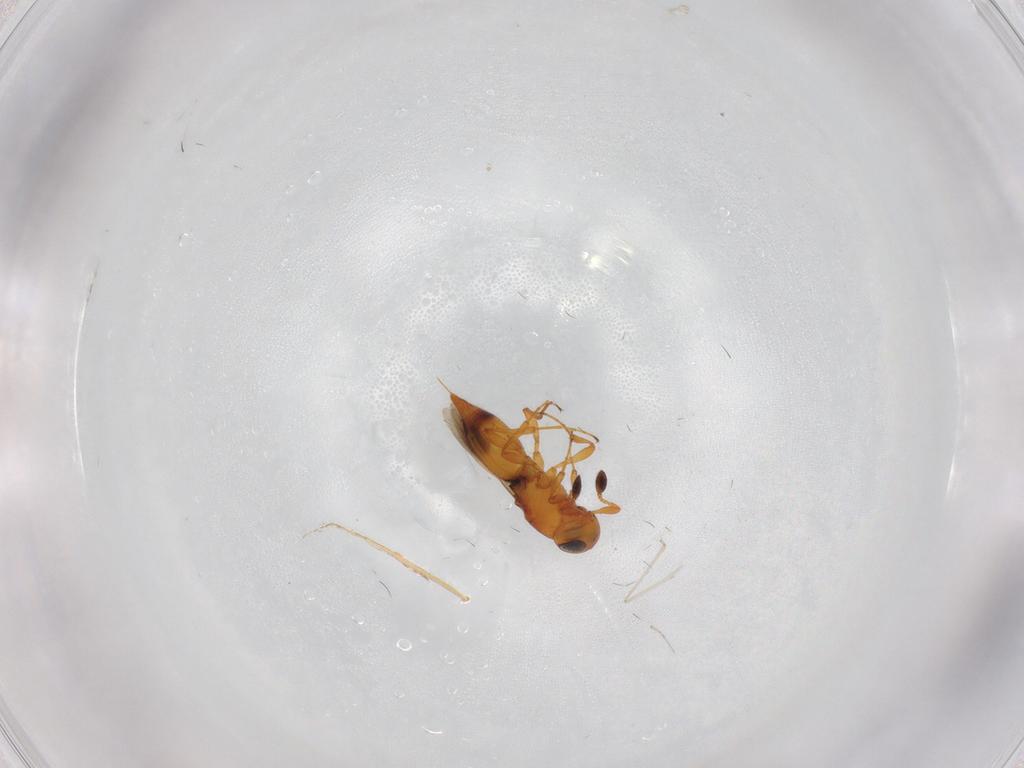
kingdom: Animalia
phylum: Arthropoda
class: Insecta
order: Hymenoptera
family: Platygastridae
